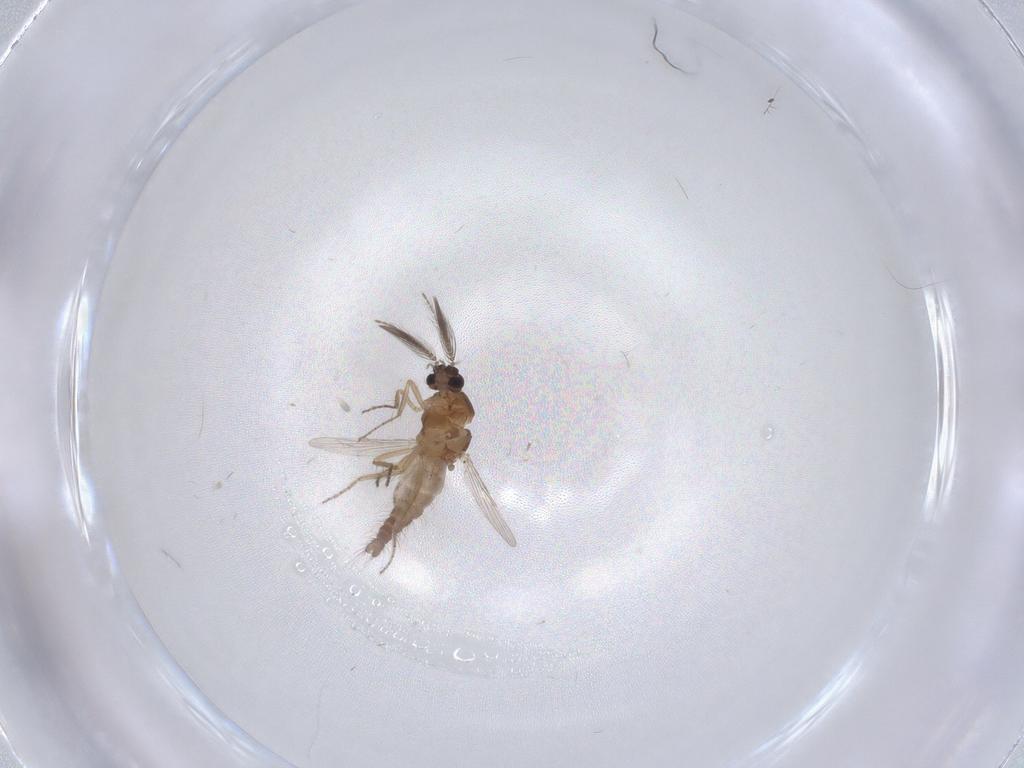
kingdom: Animalia
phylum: Arthropoda
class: Insecta
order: Diptera
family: Ceratopogonidae
